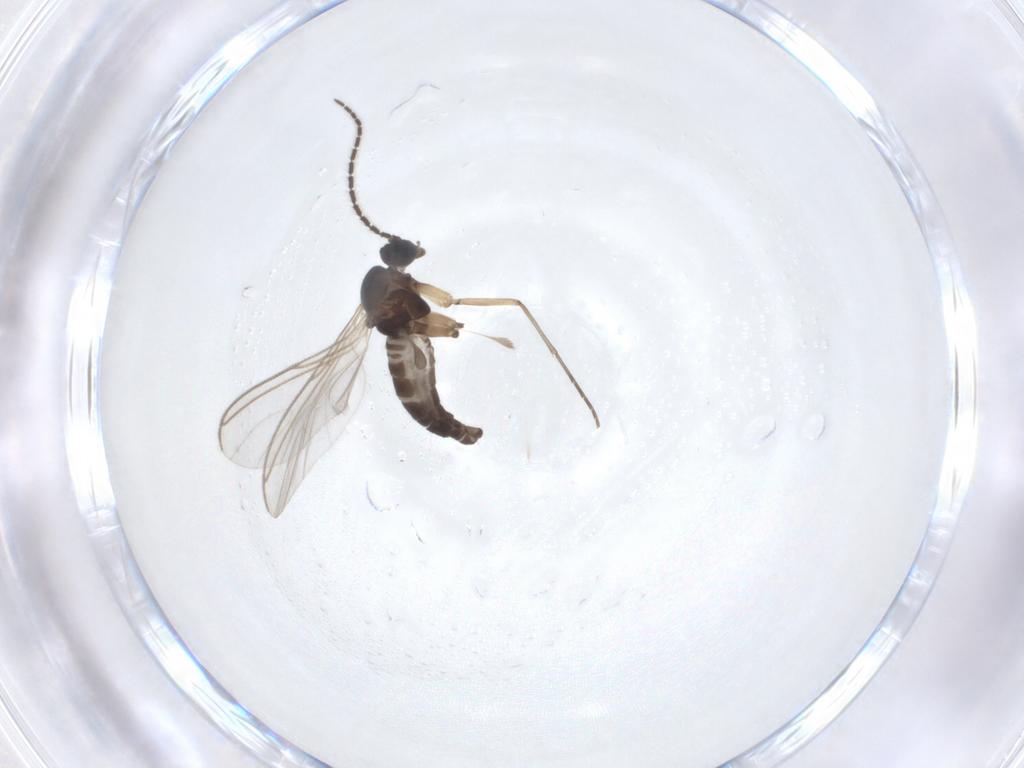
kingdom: Animalia
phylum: Arthropoda
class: Insecta
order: Diptera
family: Sciaridae
